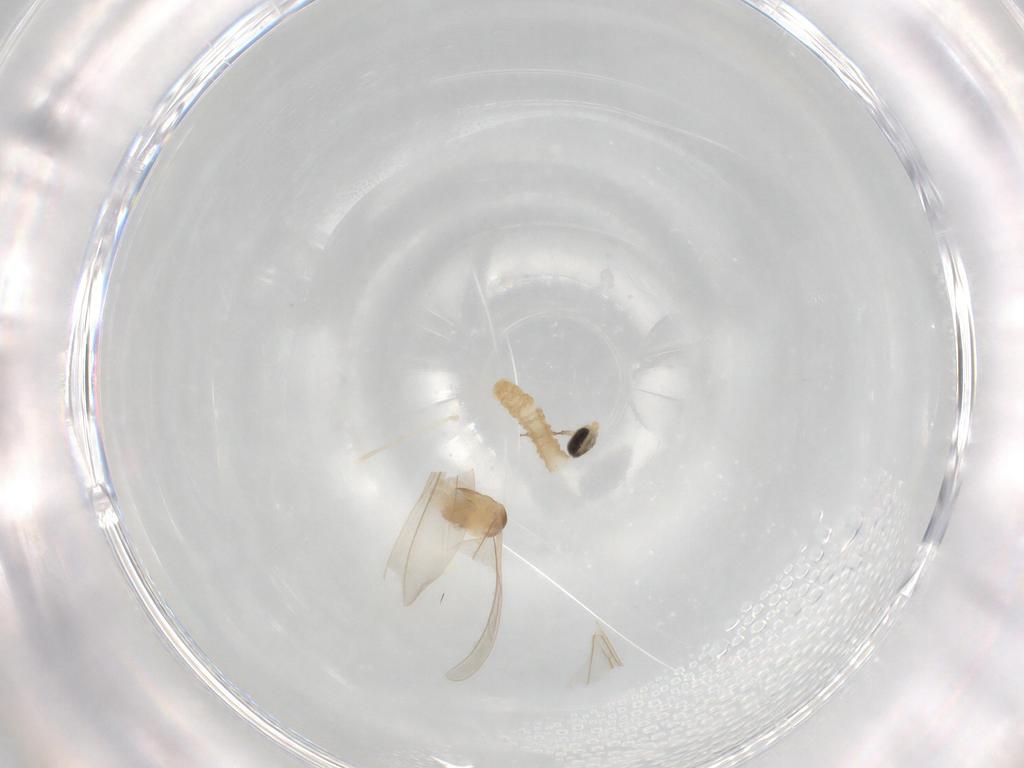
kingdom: Animalia
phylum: Arthropoda
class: Insecta
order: Diptera
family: Cecidomyiidae
